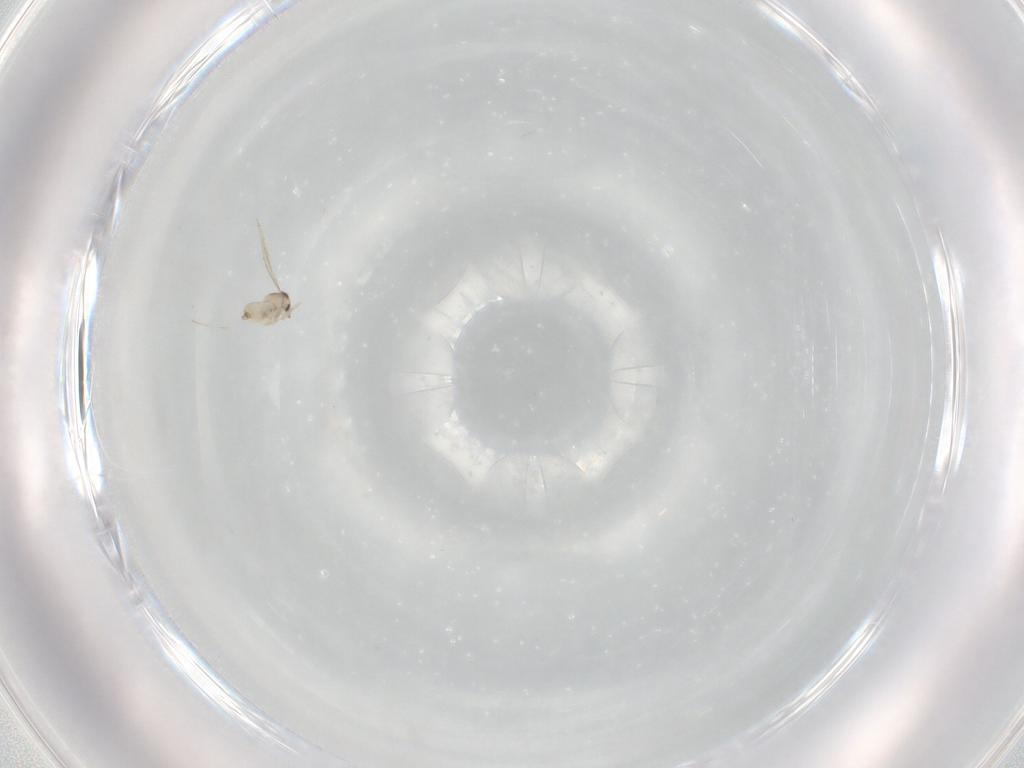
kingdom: Animalia
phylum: Arthropoda
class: Insecta
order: Diptera
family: Cecidomyiidae
